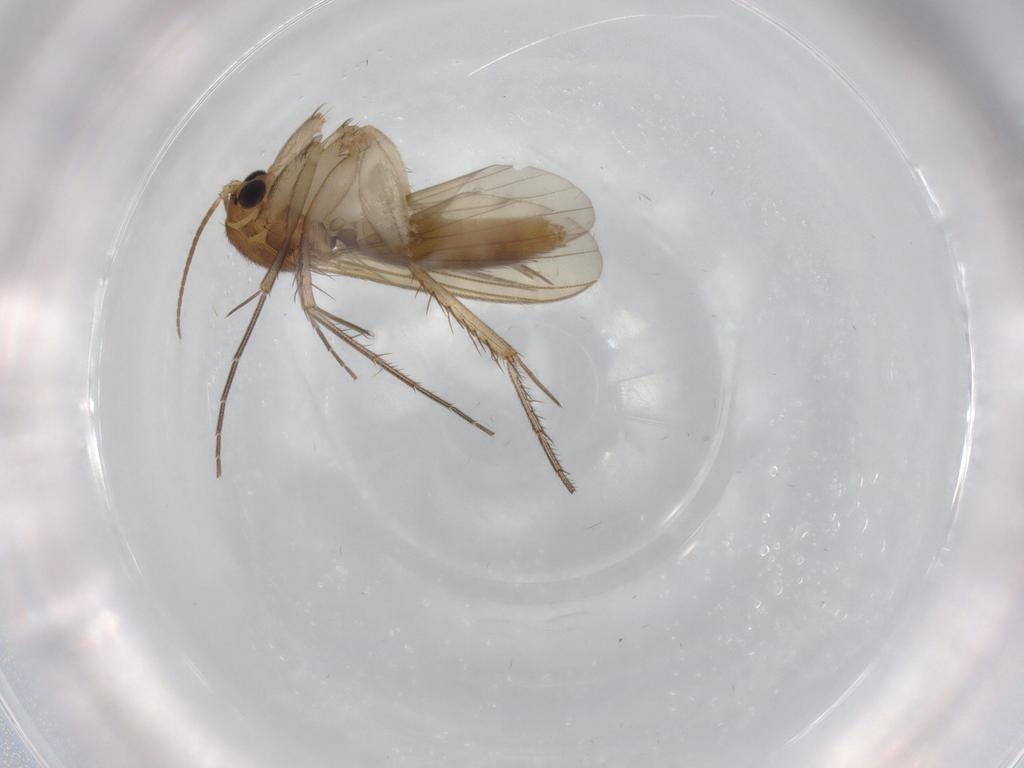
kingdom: Animalia
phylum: Arthropoda
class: Insecta
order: Diptera
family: Mycetophilidae
